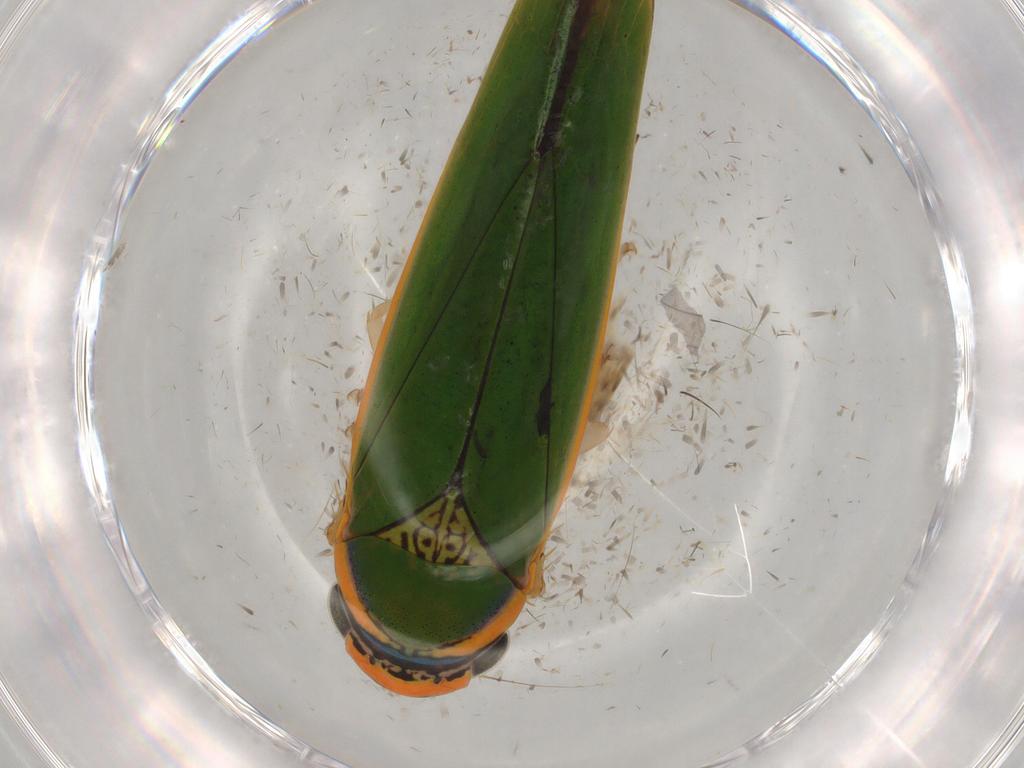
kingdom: Animalia
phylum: Arthropoda
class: Insecta
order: Hemiptera
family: Cicadellidae
